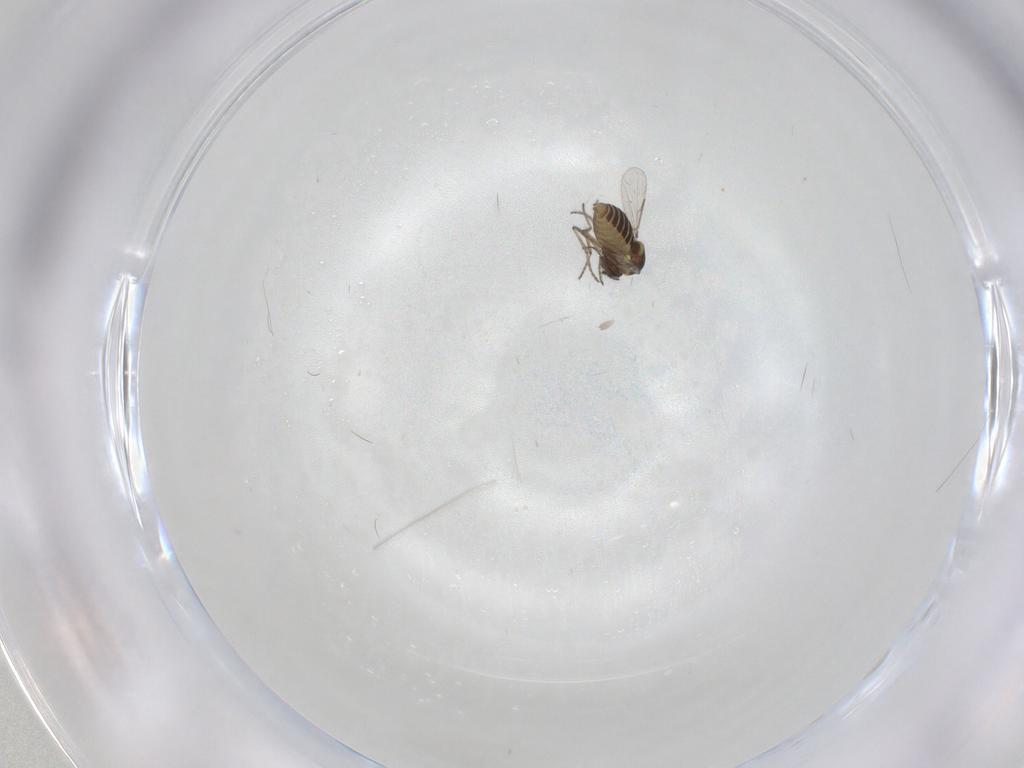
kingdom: Animalia
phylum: Arthropoda
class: Insecta
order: Diptera
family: Ceratopogonidae
